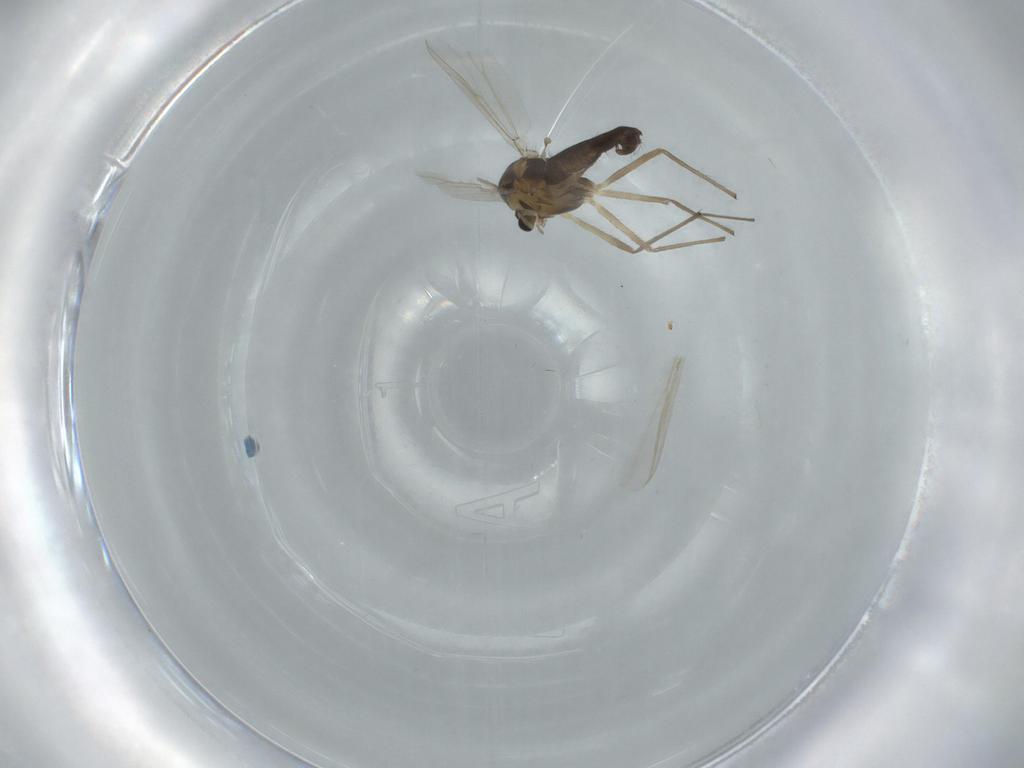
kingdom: Animalia
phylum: Arthropoda
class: Insecta
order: Diptera
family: Chironomidae
